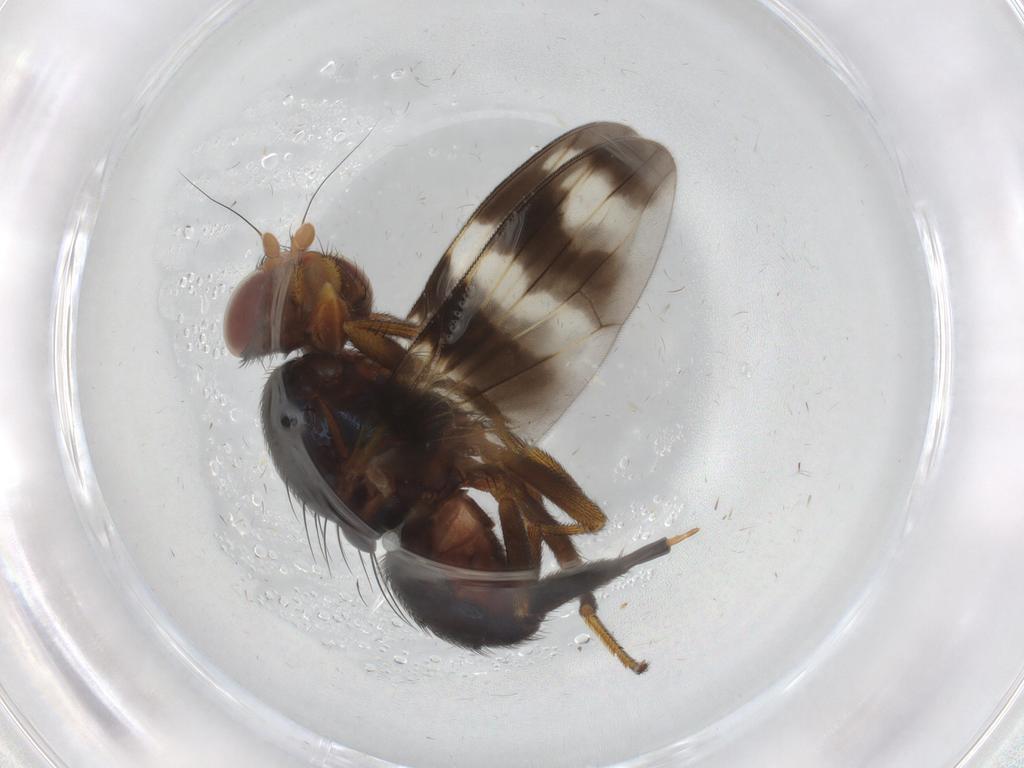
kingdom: Animalia
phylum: Arthropoda
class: Insecta
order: Diptera
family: Ulidiidae
